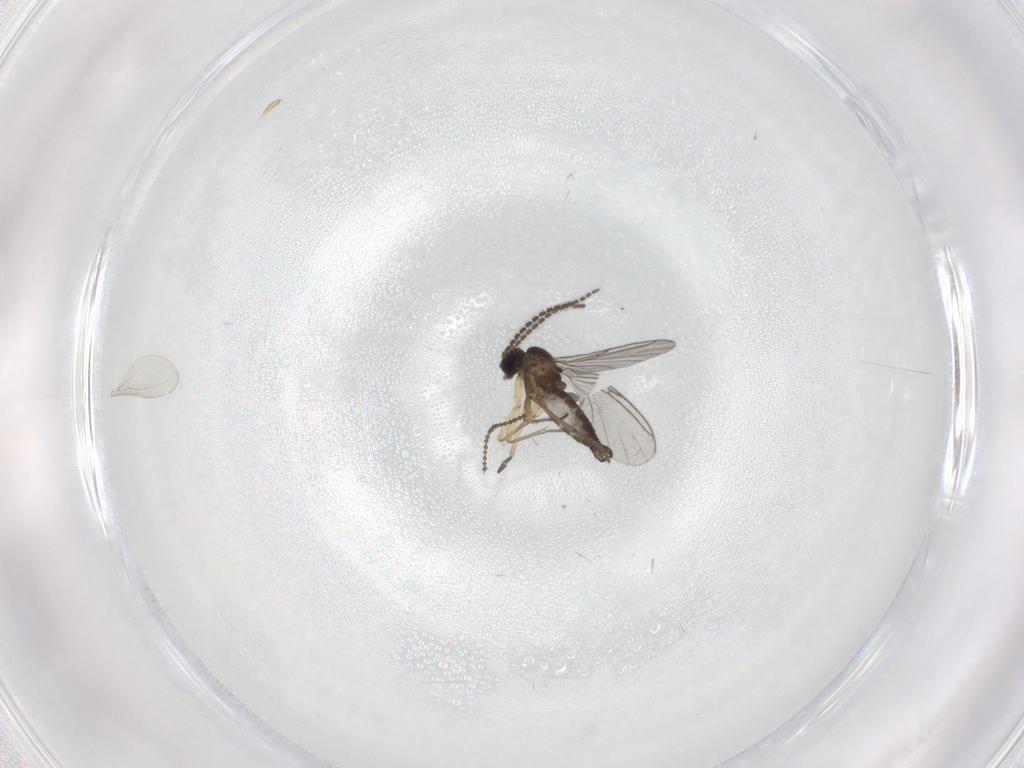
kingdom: Animalia
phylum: Arthropoda
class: Insecta
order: Diptera
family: Sciaridae
